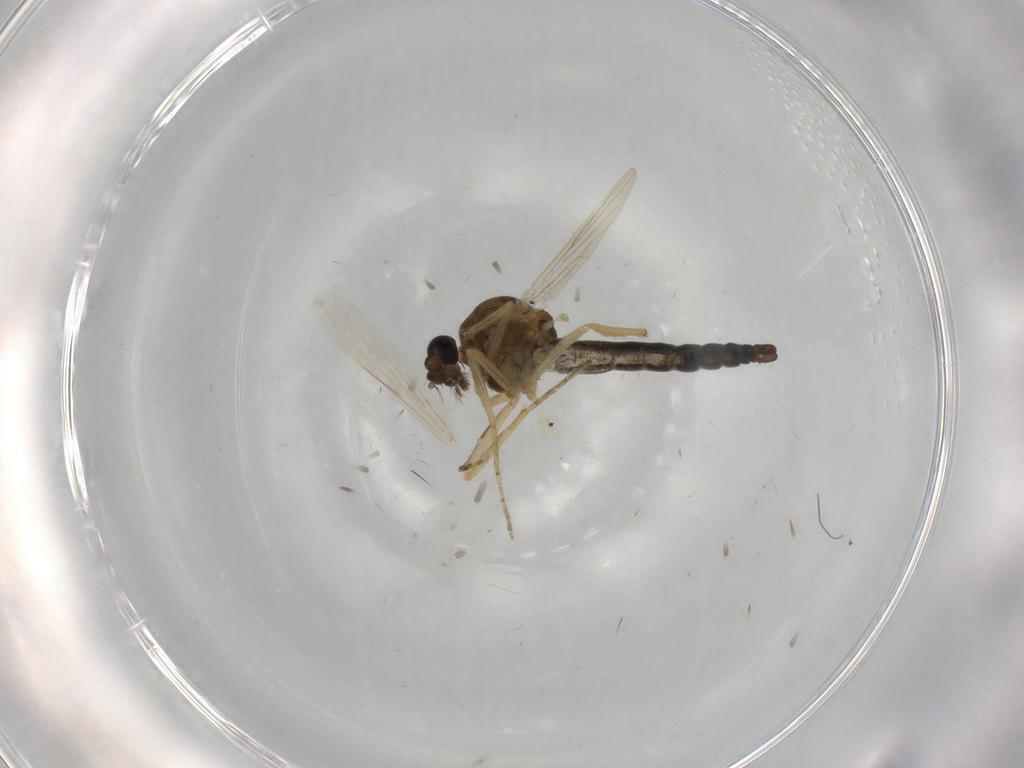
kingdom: Animalia
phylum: Arthropoda
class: Insecta
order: Diptera
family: Ceratopogonidae
